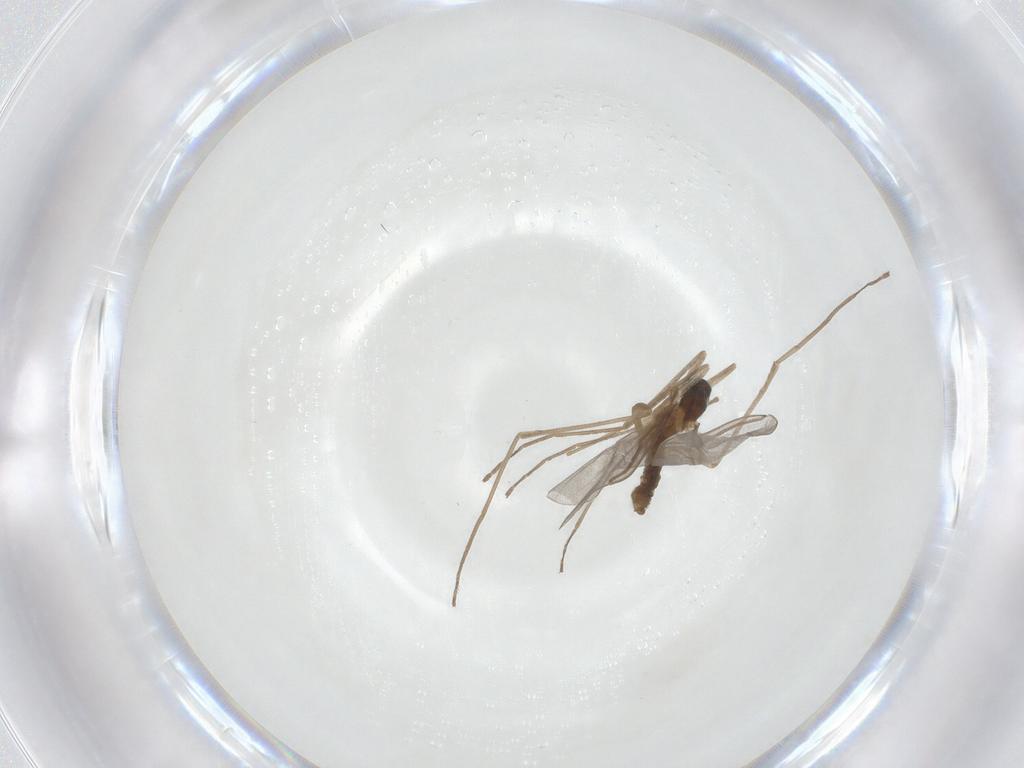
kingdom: Animalia
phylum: Arthropoda
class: Insecta
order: Diptera
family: Cecidomyiidae
